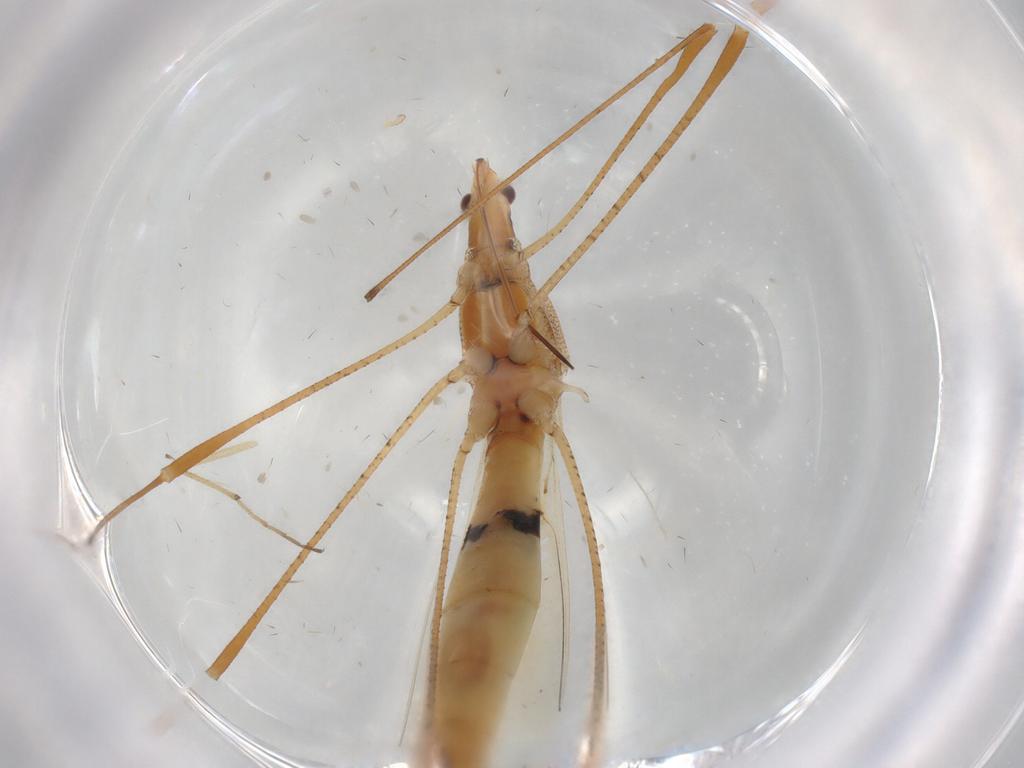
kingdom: Animalia
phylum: Arthropoda
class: Insecta
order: Hemiptera
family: Berytidae
